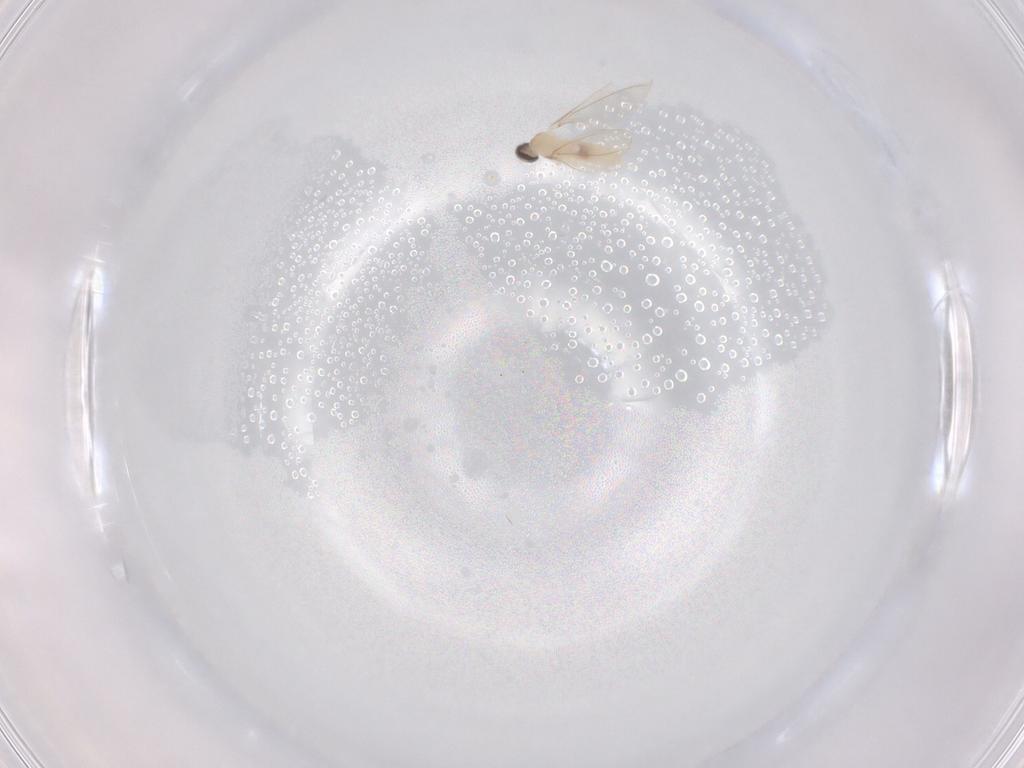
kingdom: Animalia
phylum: Arthropoda
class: Insecta
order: Diptera
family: Cecidomyiidae
